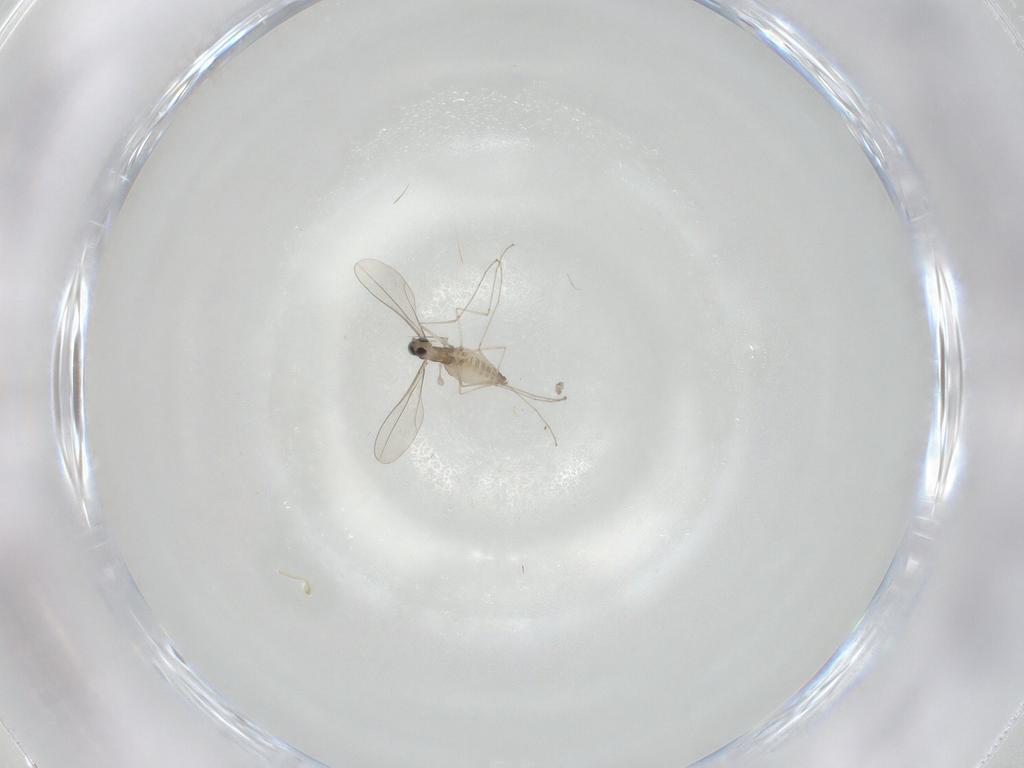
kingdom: Animalia
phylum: Arthropoda
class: Insecta
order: Diptera
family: Cecidomyiidae
